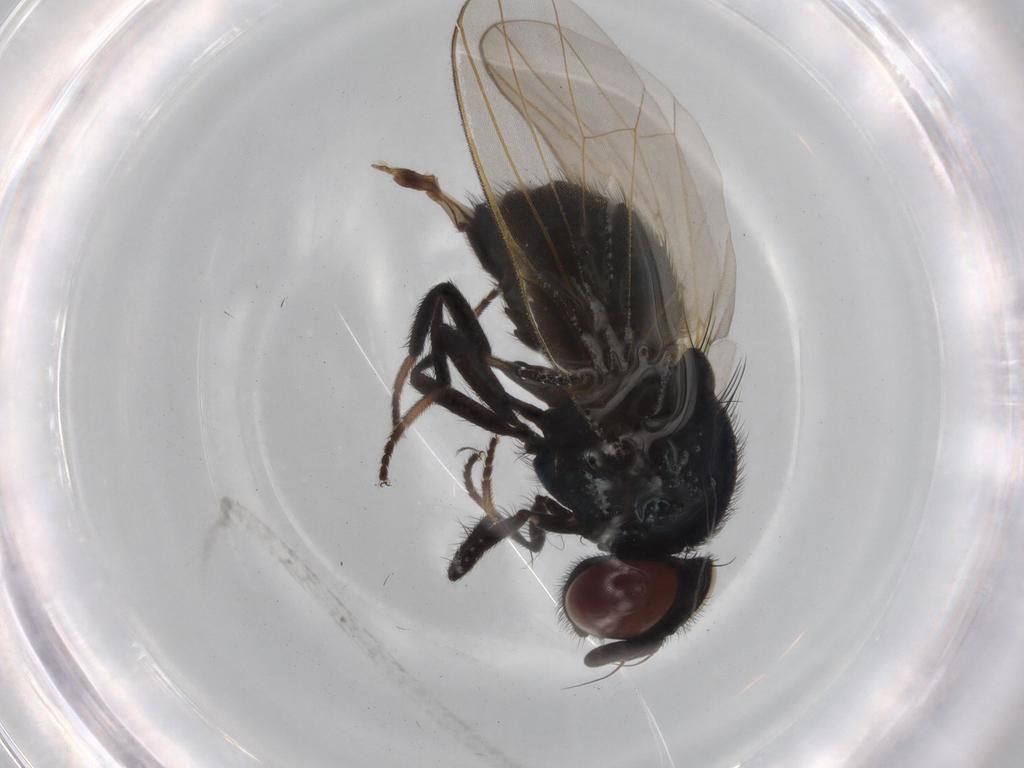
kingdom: Animalia
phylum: Arthropoda
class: Insecta
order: Diptera
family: Lonchaeidae
